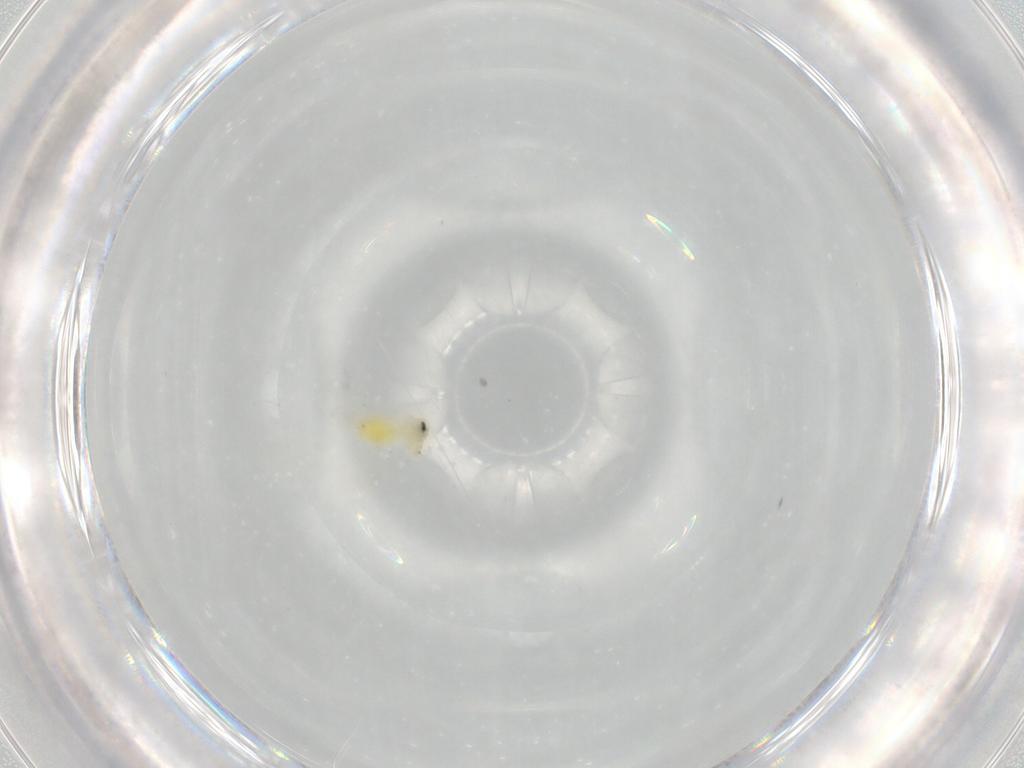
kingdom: Animalia
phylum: Arthropoda
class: Insecta
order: Hemiptera
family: Aleyrodidae
